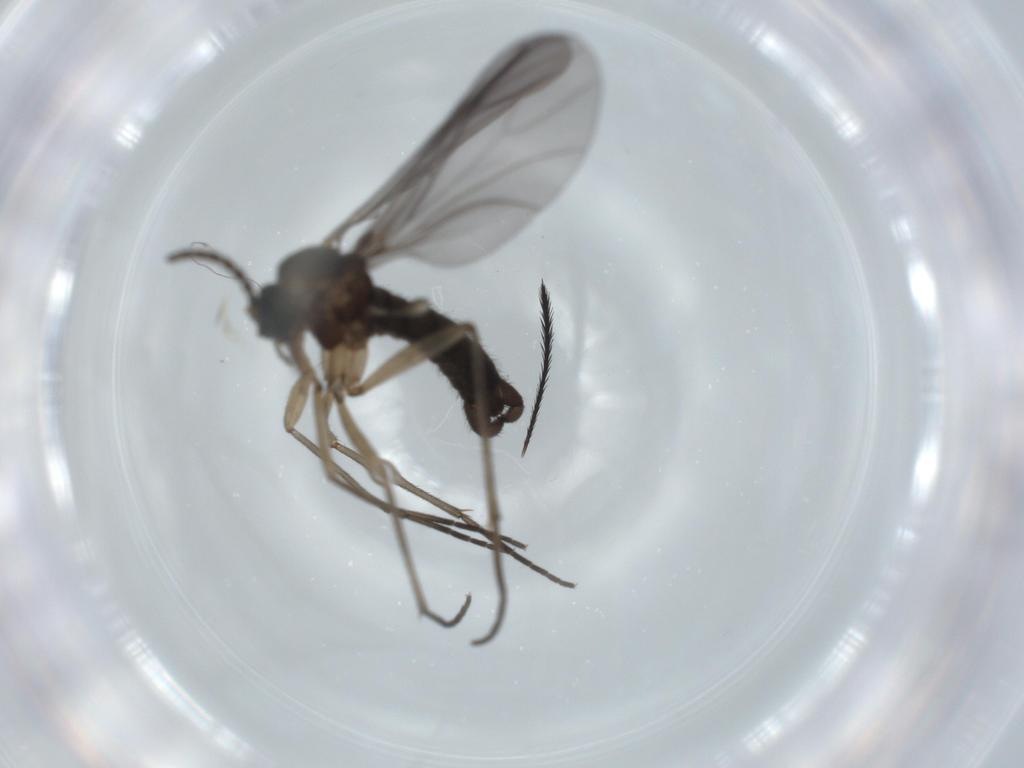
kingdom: Animalia
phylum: Arthropoda
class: Insecta
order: Diptera
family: Sciaridae
